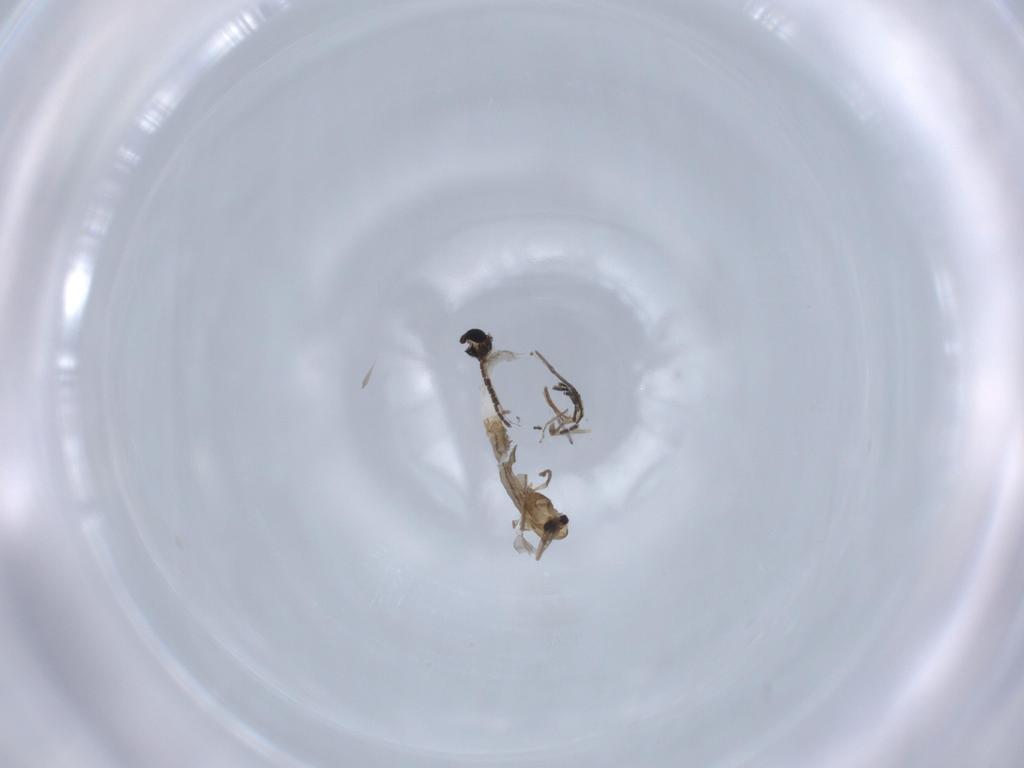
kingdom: Animalia
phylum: Arthropoda
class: Insecta
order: Diptera
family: Chironomidae
